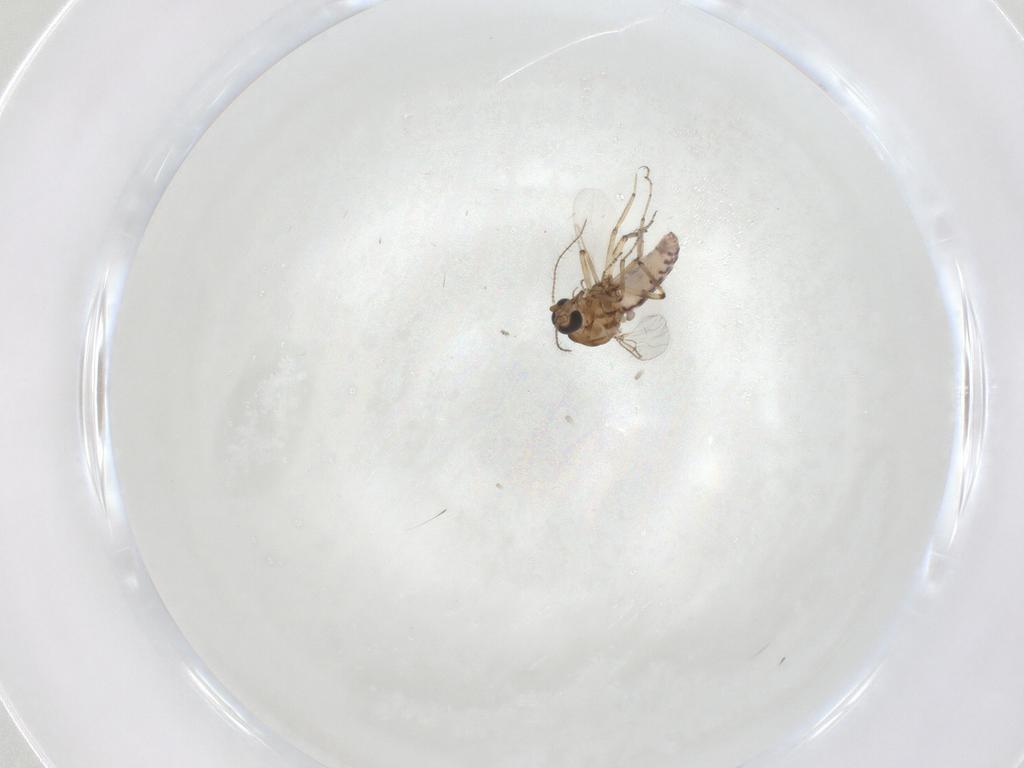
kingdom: Animalia
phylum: Arthropoda
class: Insecta
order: Diptera
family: Ceratopogonidae
